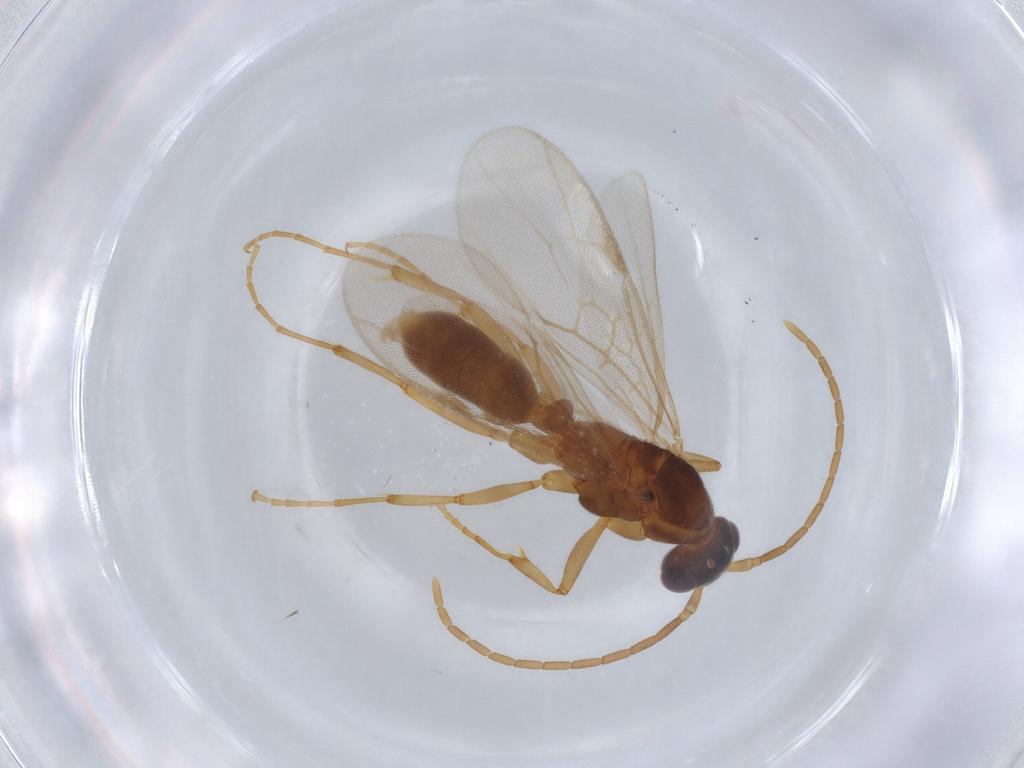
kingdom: Animalia
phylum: Arthropoda
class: Insecta
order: Hymenoptera
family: Formicidae
